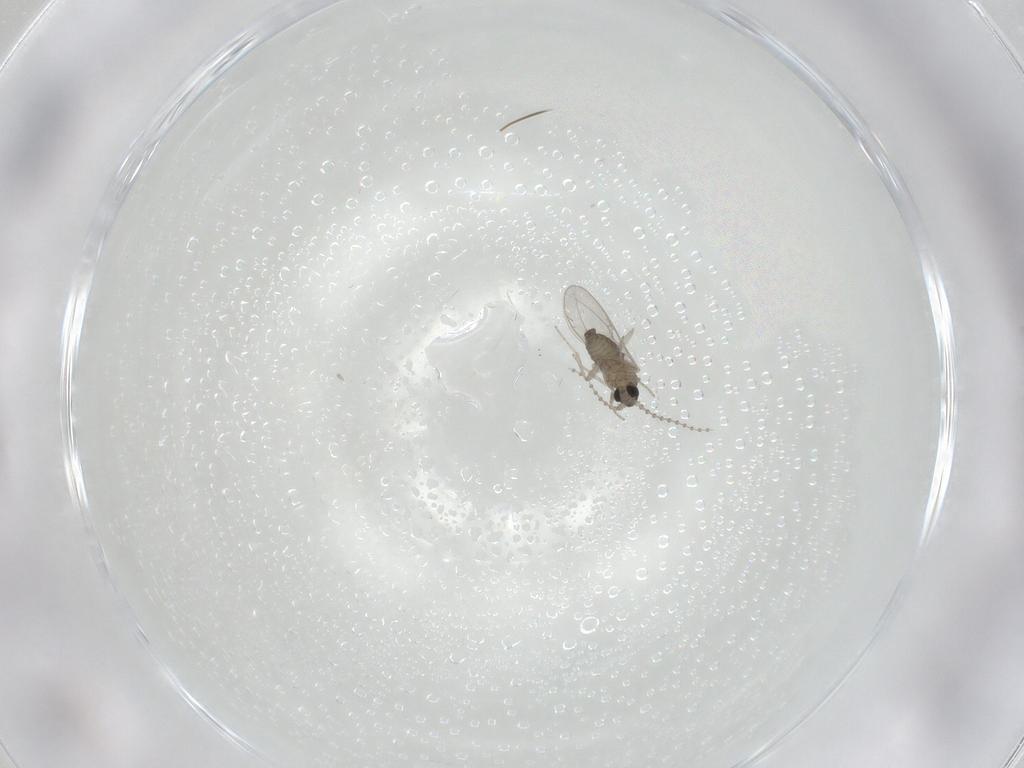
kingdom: Animalia
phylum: Arthropoda
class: Insecta
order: Diptera
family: Cecidomyiidae
